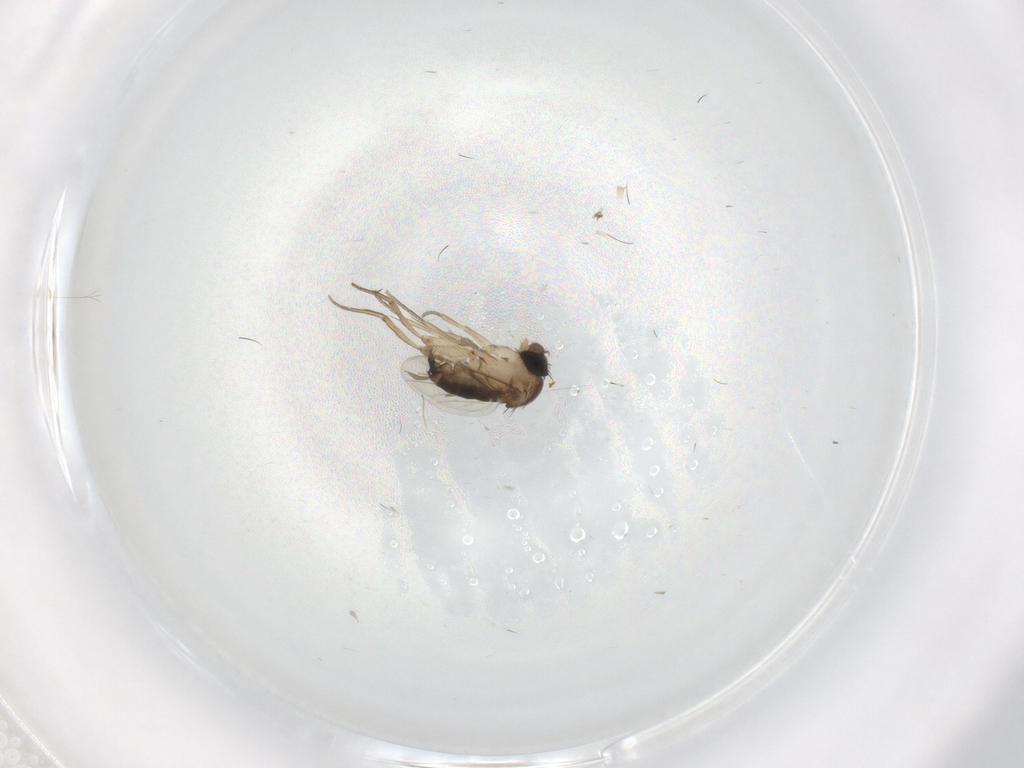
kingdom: Animalia
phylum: Arthropoda
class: Insecta
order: Diptera
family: Chironomidae
